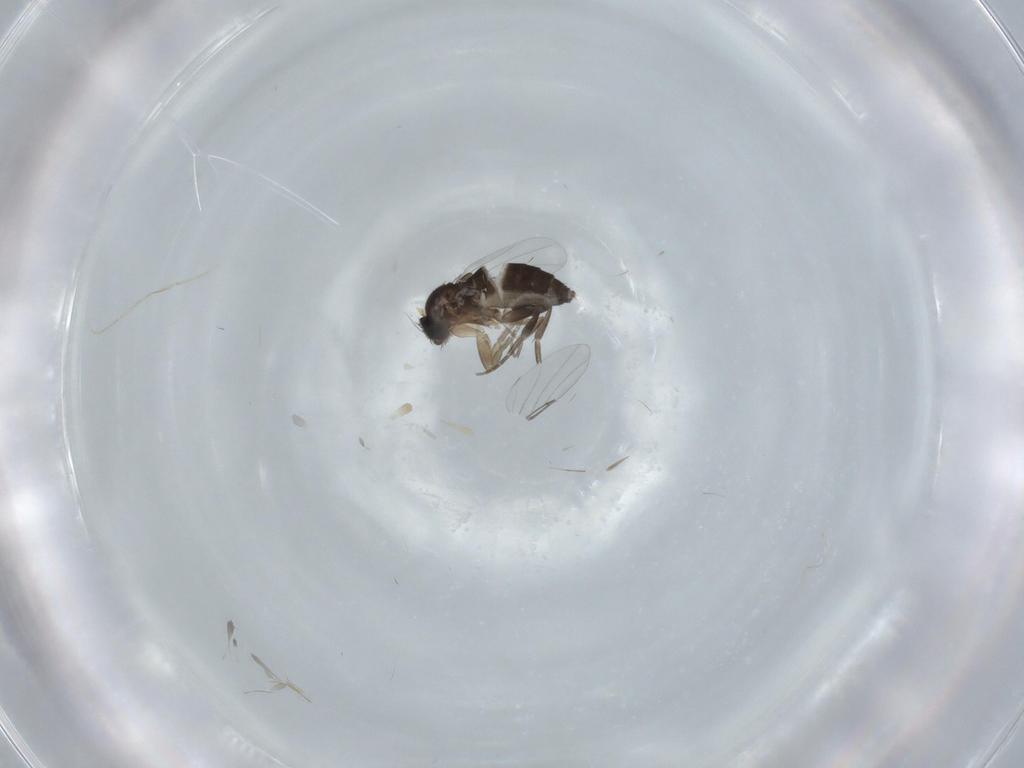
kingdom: Animalia
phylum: Arthropoda
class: Insecta
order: Diptera
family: Phoridae
